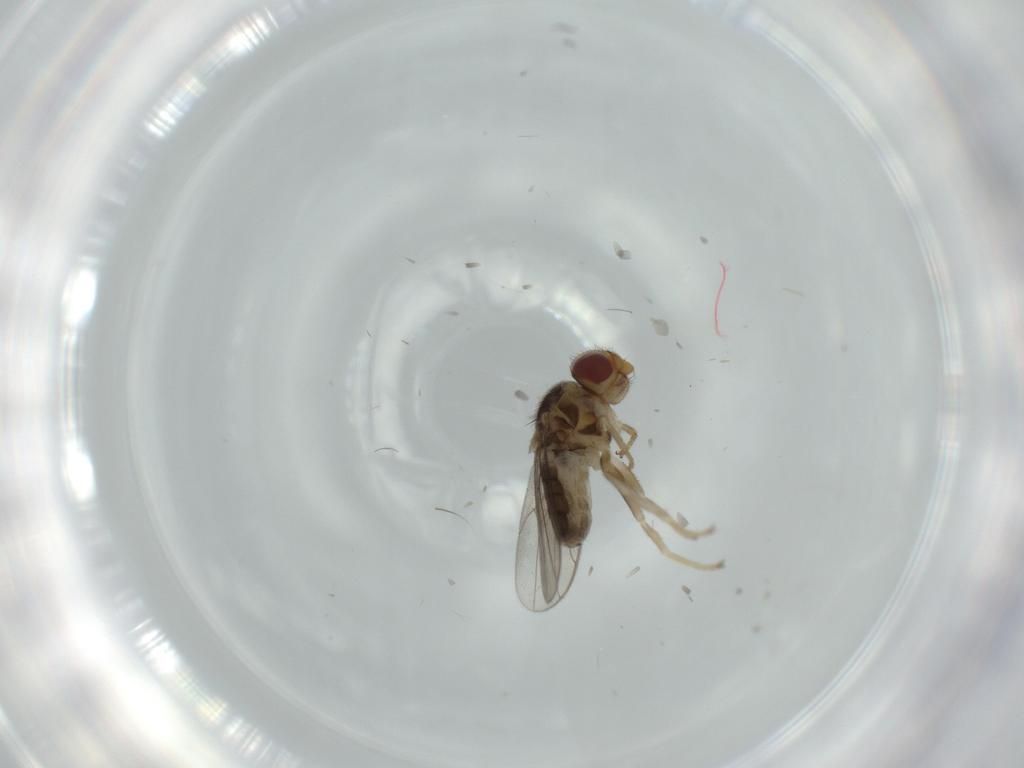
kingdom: Animalia
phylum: Arthropoda
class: Insecta
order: Diptera
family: Chloropidae
